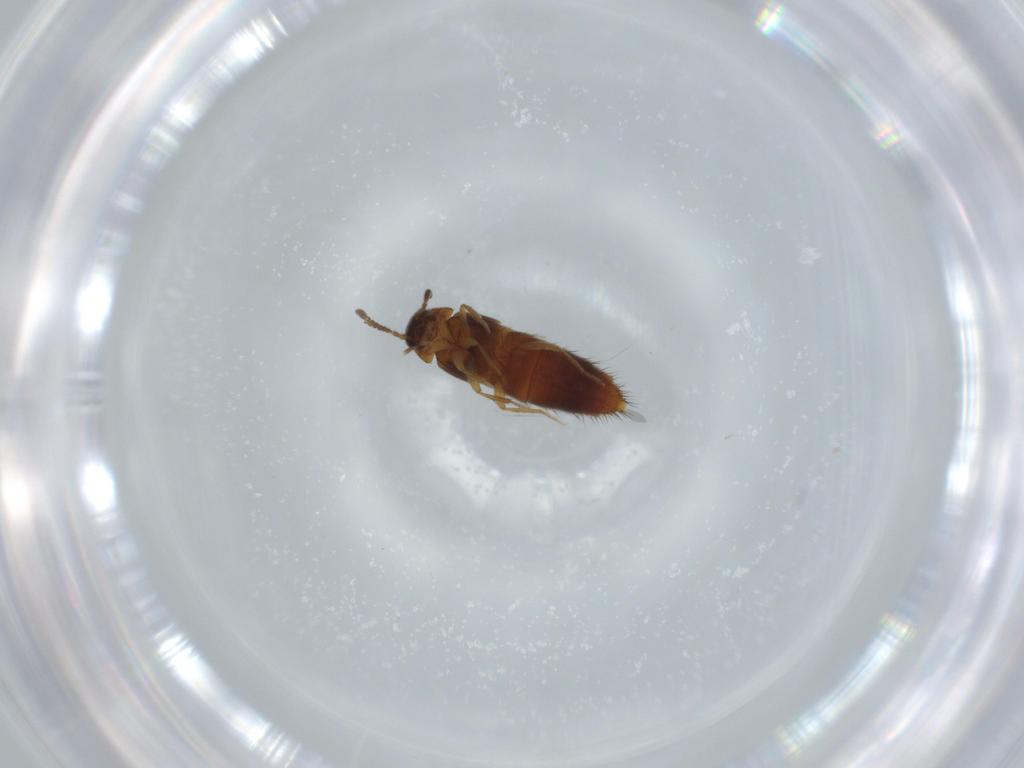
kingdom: Animalia
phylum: Arthropoda
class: Insecta
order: Coleoptera
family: Staphylinidae
